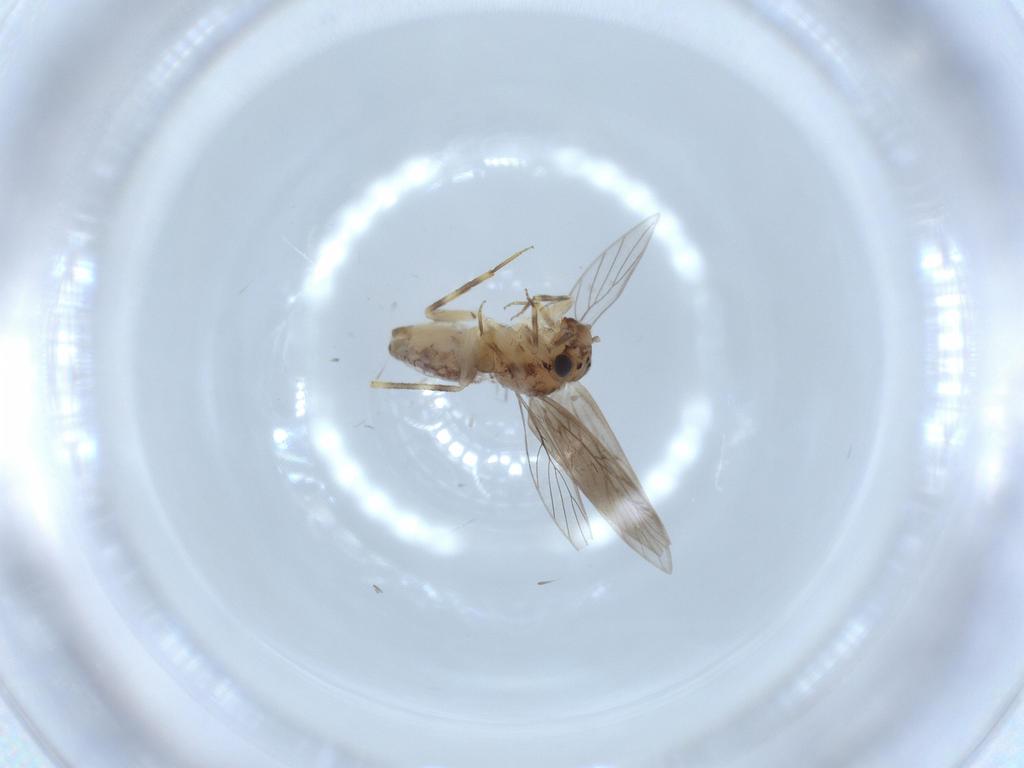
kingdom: Animalia
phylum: Arthropoda
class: Insecta
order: Psocodea
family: Lepidopsocidae
